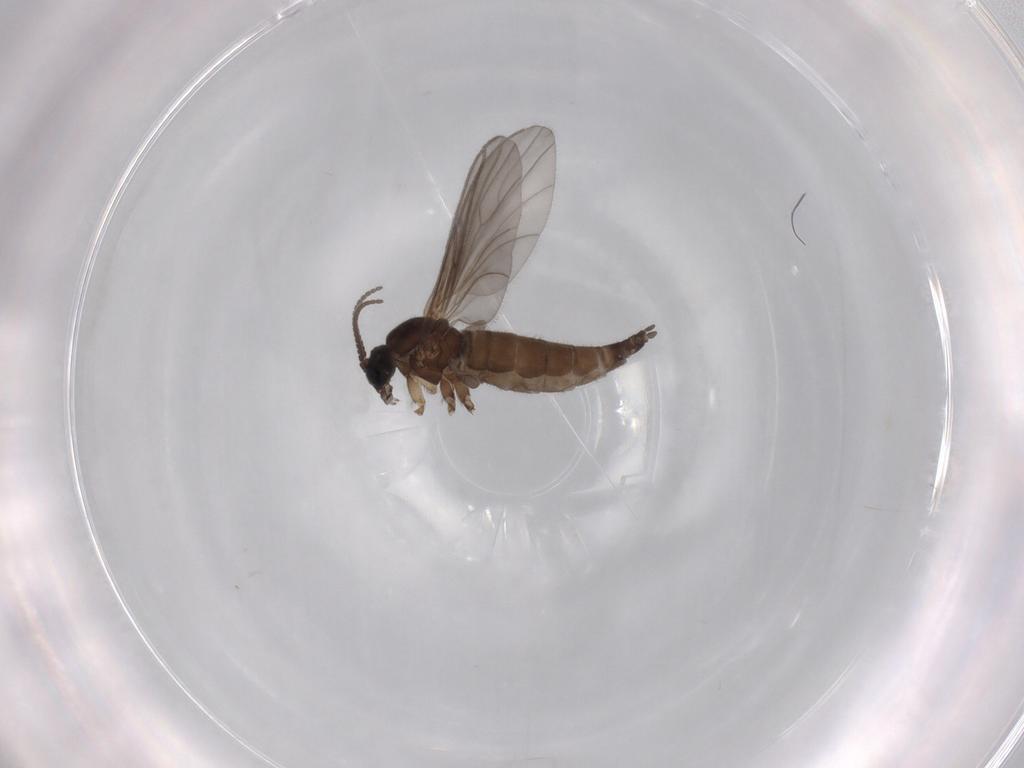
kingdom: Animalia
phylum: Arthropoda
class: Insecta
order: Diptera
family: Sciaridae
